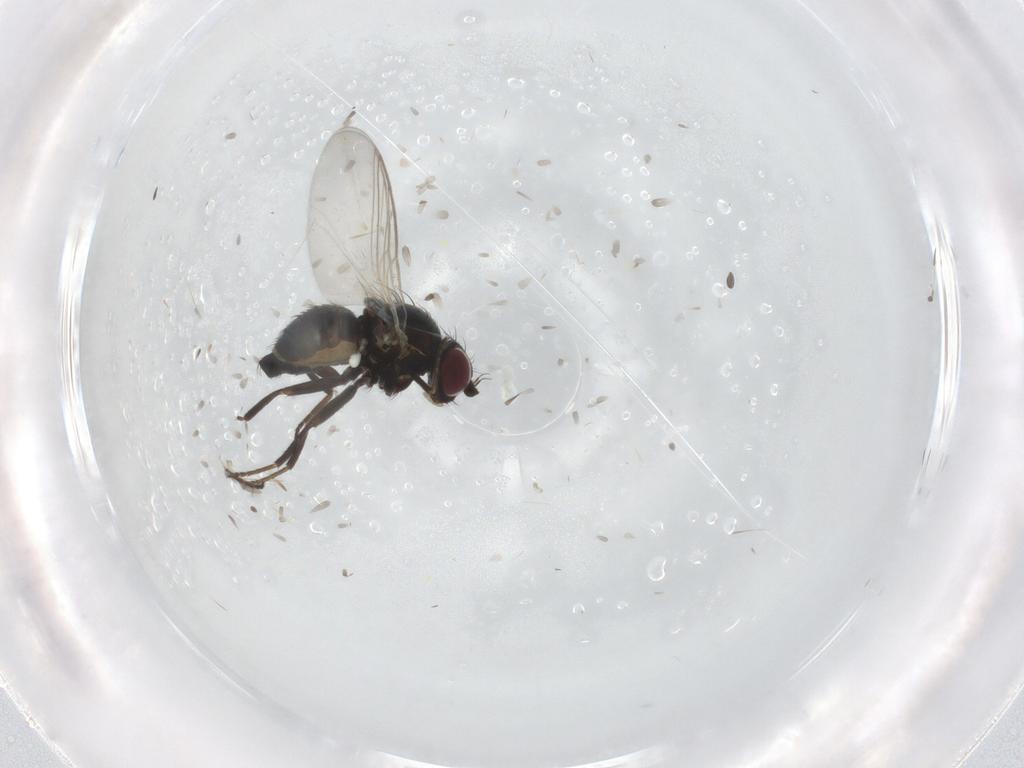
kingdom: Animalia
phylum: Arthropoda
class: Insecta
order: Diptera
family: Agromyzidae
